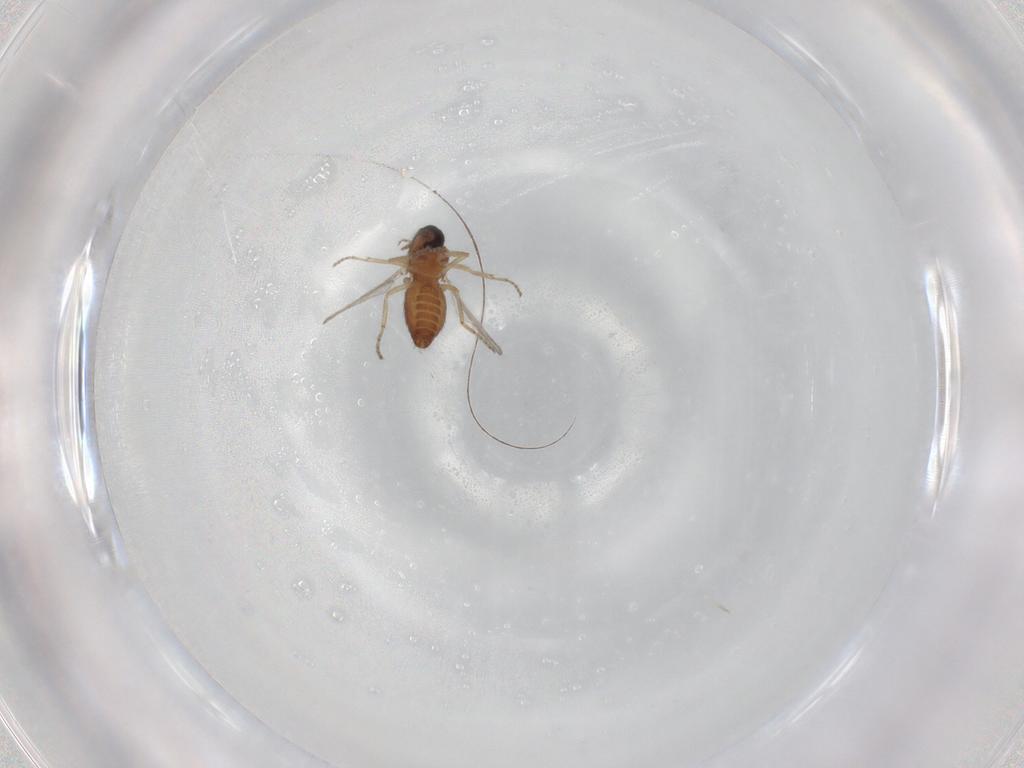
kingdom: Animalia
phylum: Arthropoda
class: Insecta
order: Diptera
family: Ceratopogonidae
